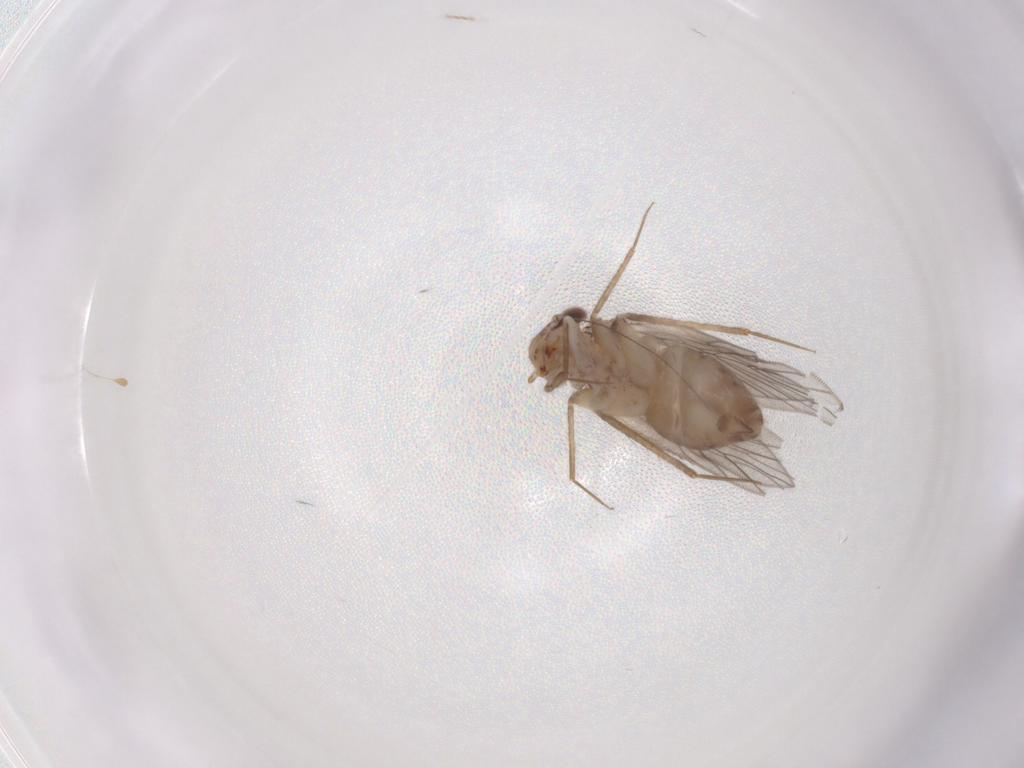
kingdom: Animalia
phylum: Arthropoda
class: Insecta
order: Psocodea
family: Lepidopsocidae
